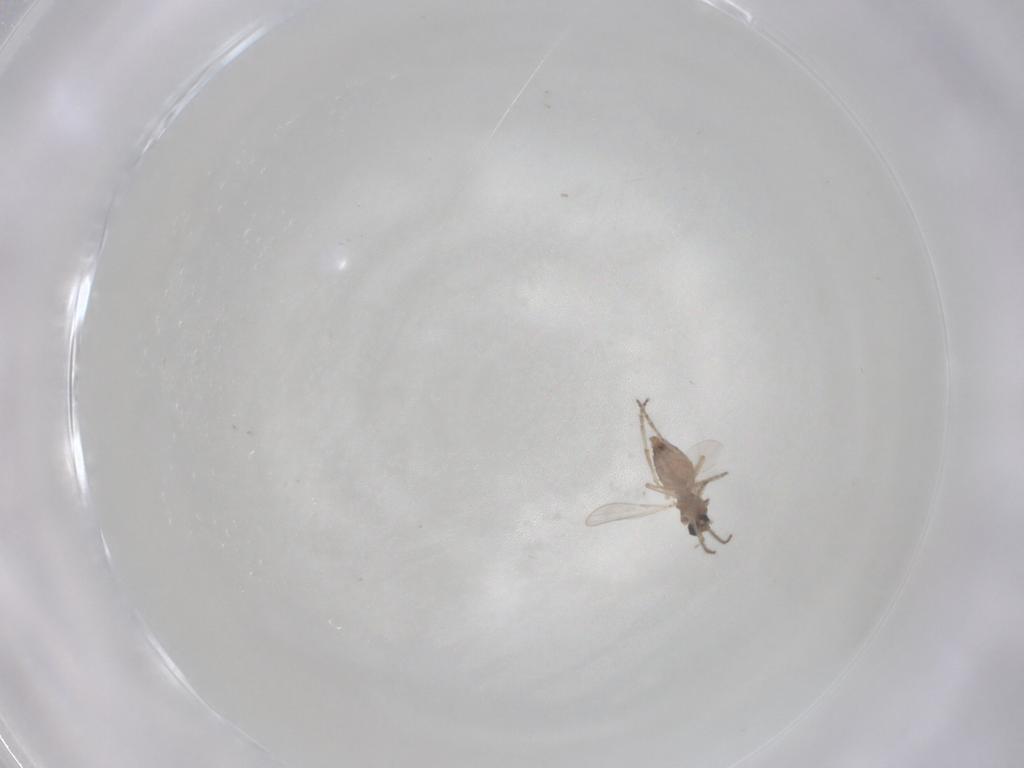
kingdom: Animalia
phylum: Arthropoda
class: Insecta
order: Diptera
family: Ceratopogonidae
